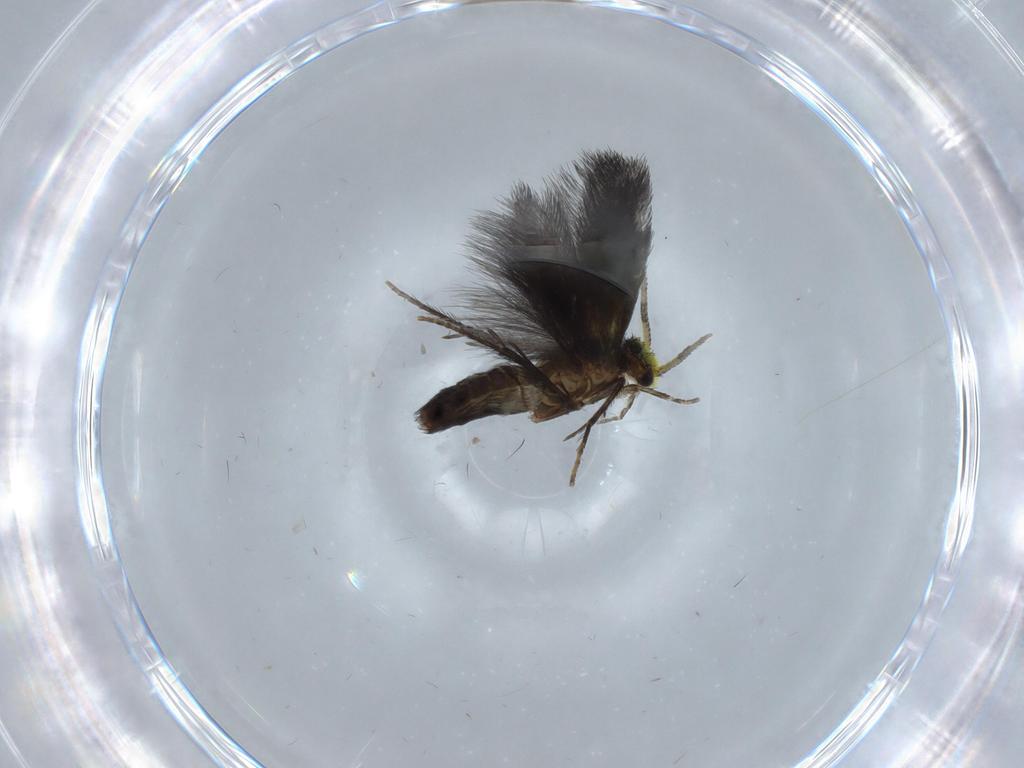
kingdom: Animalia
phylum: Arthropoda
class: Insecta
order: Trichoptera
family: Hydroptilidae
